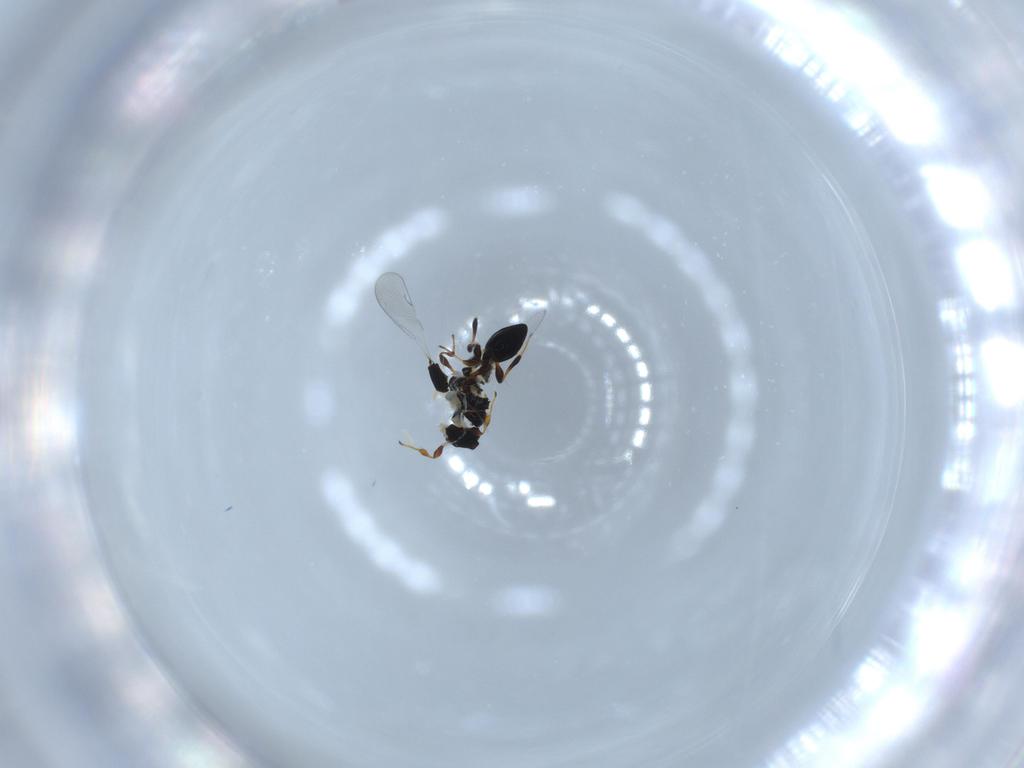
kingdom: Animalia
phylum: Arthropoda
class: Insecta
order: Hymenoptera
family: Platygastridae
